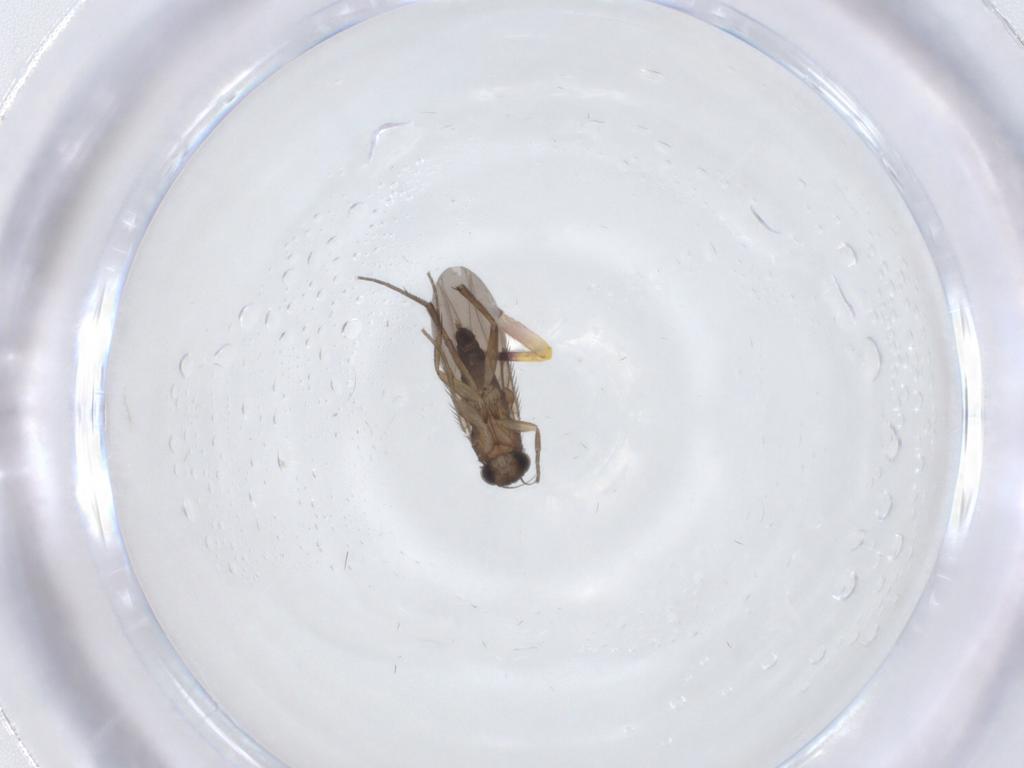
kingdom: Animalia
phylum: Arthropoda
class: Insecta
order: Diptera
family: Phoridae
